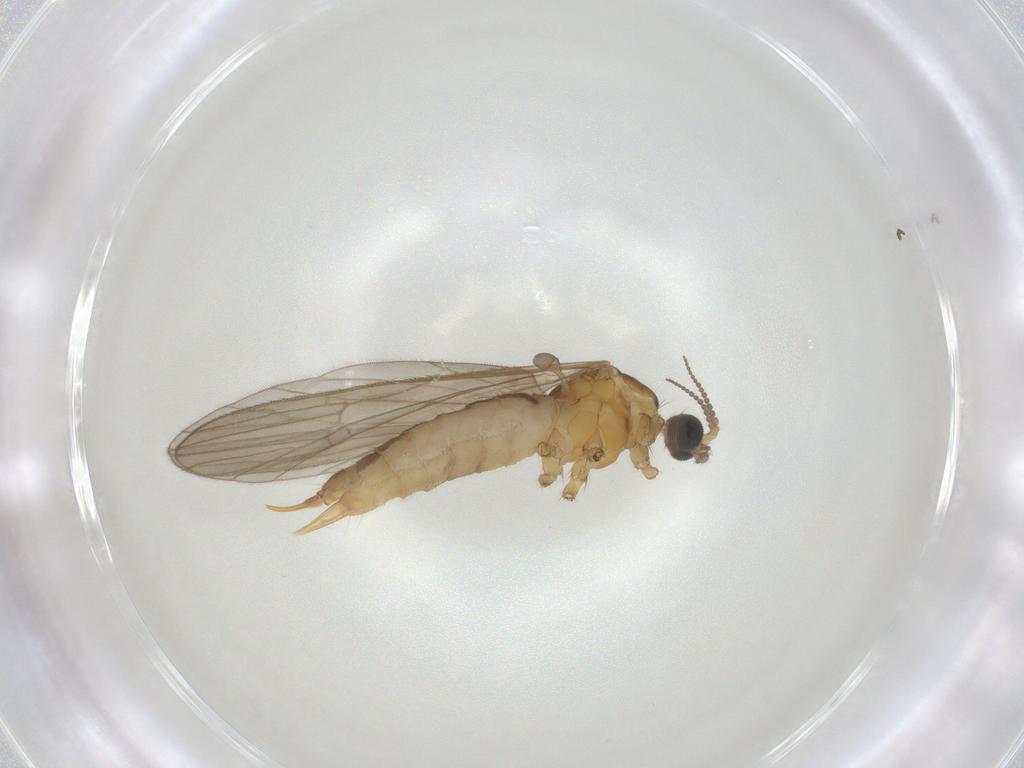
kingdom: Animalia
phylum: Arthropoda
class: Insecta
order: Diptera
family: Limoniidae
